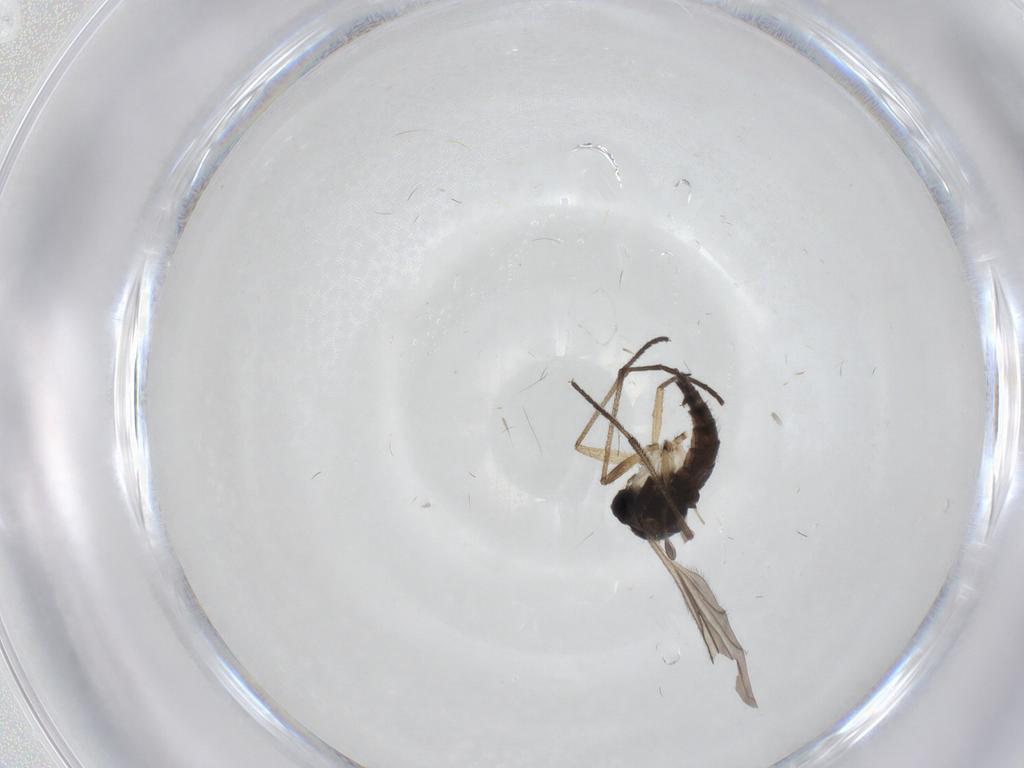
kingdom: Animalia
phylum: Arthropoda
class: Insecta
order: Diptera
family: Sciaridae
